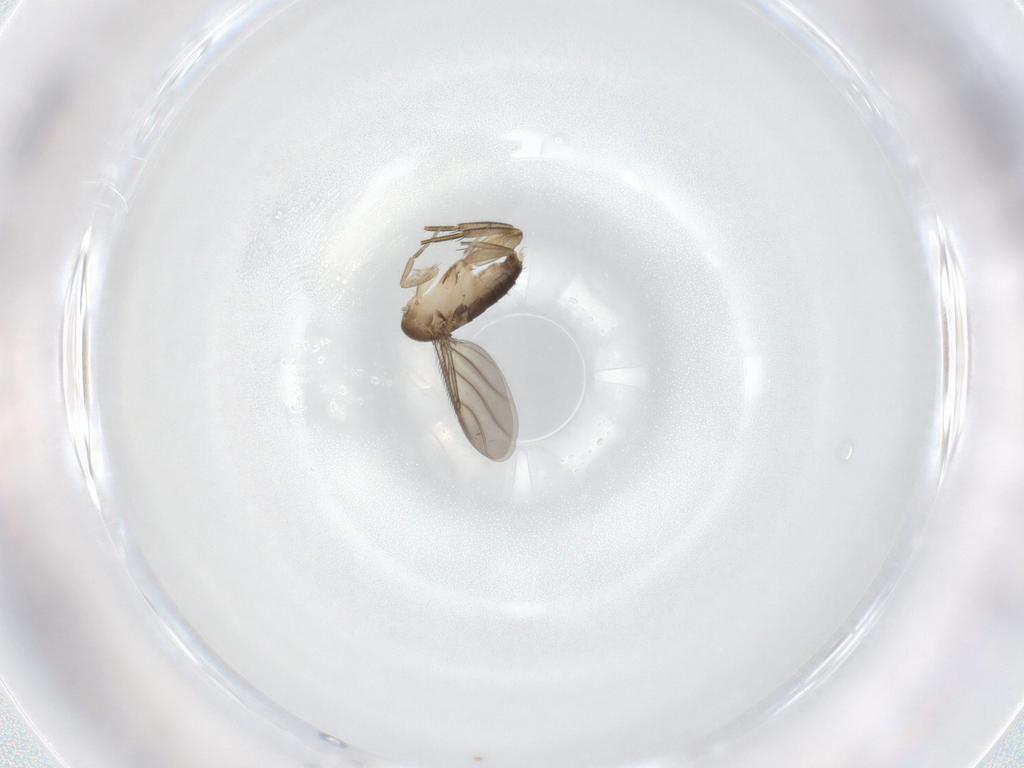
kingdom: Animalia
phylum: Arthropoda
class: Insecta
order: Diptera
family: Phoridae
